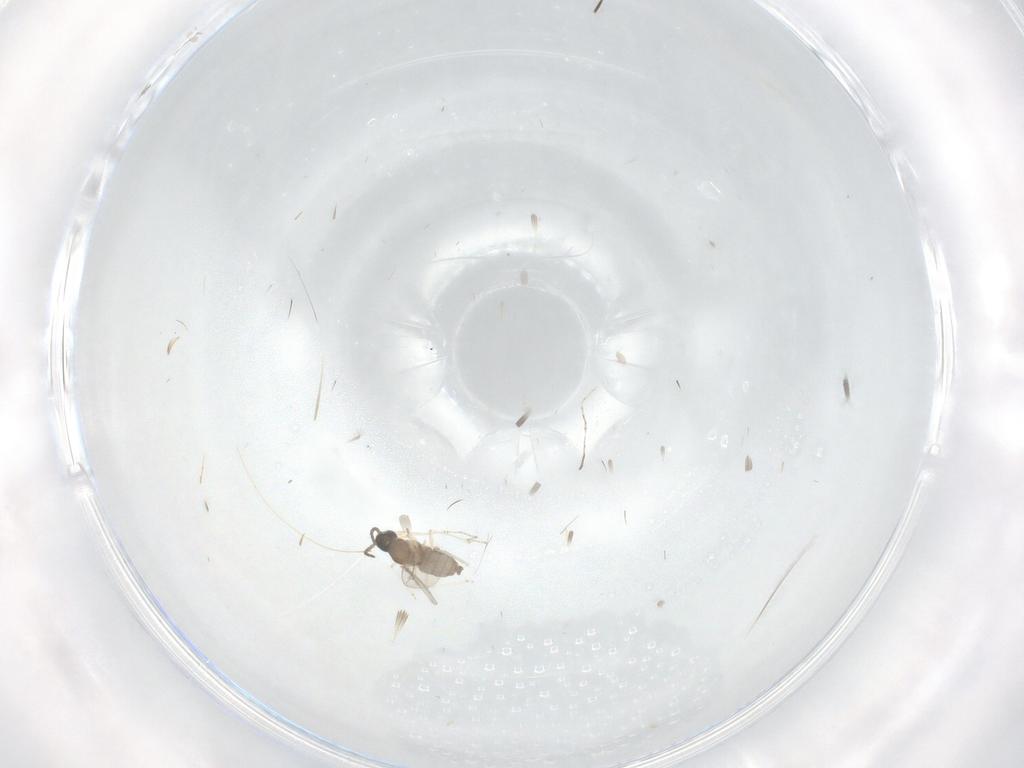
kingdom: Animalia
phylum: Arthropoda
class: Insecta
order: Diptera
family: Cecidomyiidae
